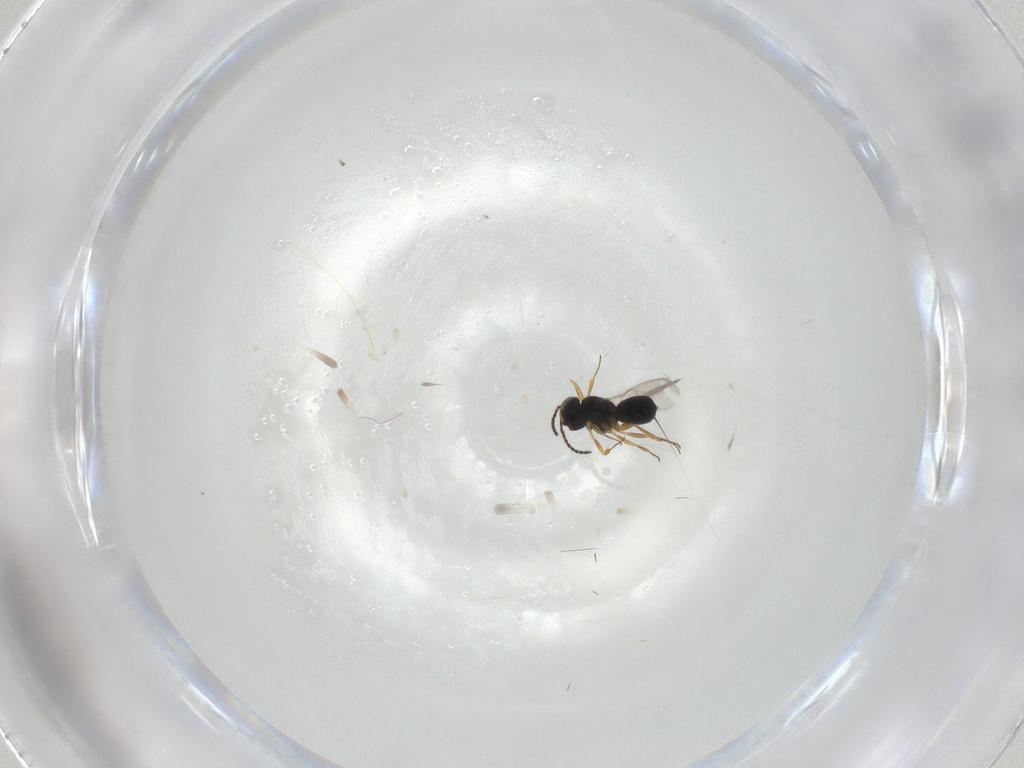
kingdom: Animalia
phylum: Arthropoda
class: Insecta
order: Hymenoptera
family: Scelionidae
